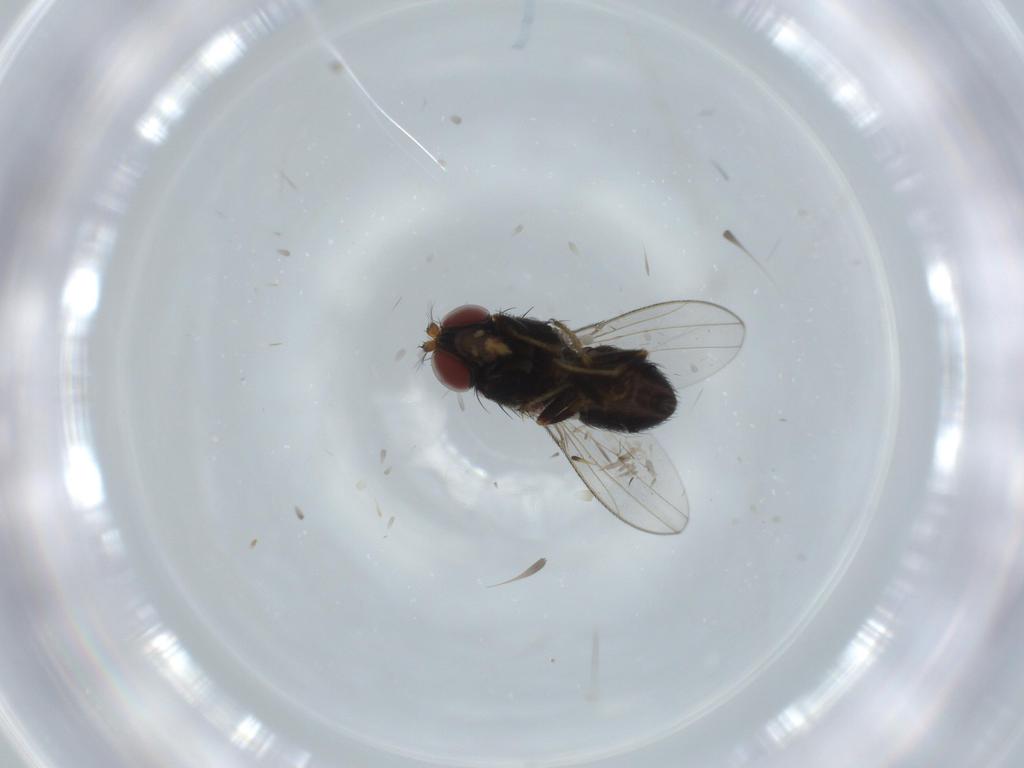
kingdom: Animalia
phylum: Arthropoda
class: Insecta
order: Diptera
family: Ephydridae
